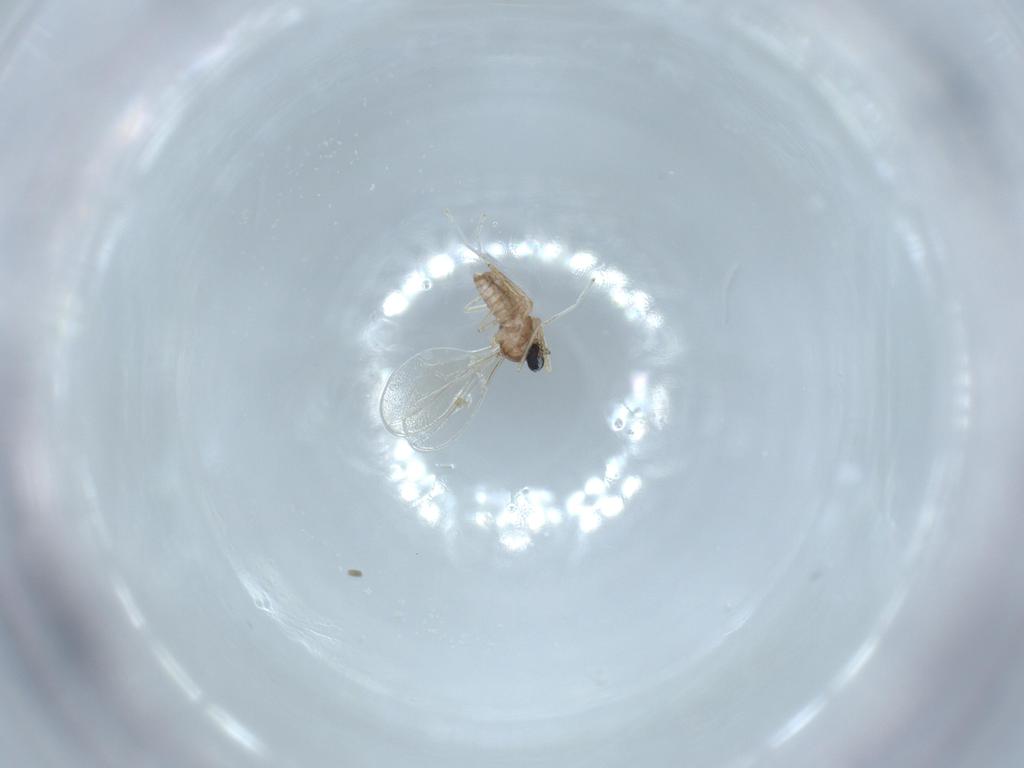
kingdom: Animalia
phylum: Arthropoda
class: Insecta
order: Diptera
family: Cecidomyiidae
